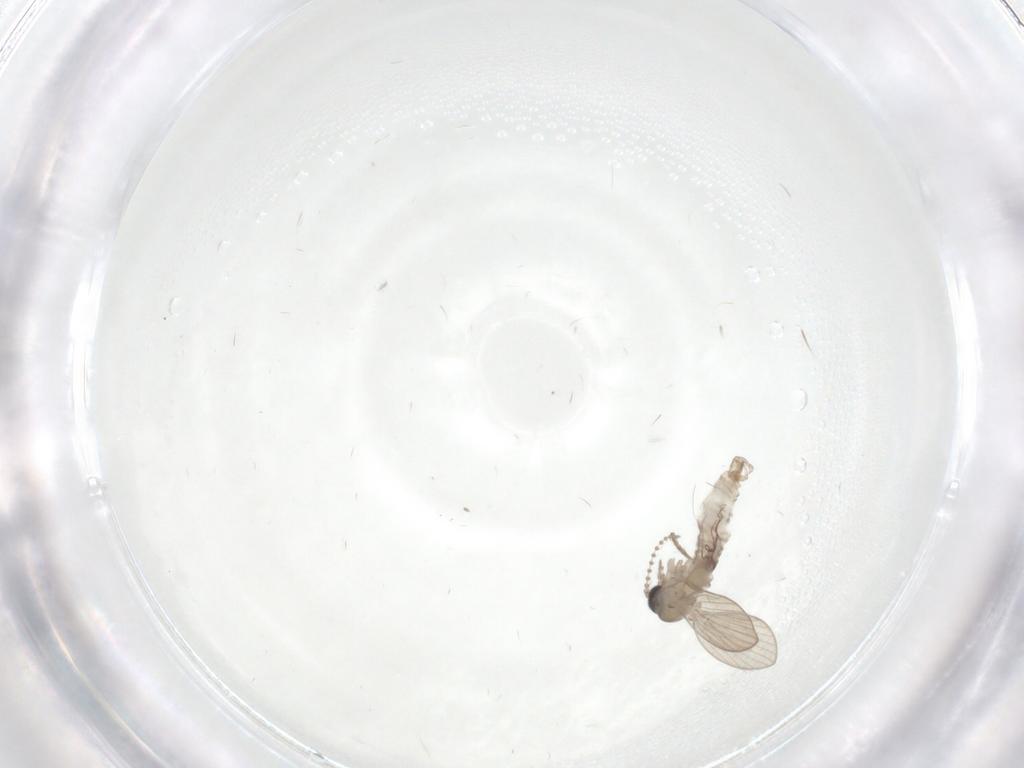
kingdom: Animalia
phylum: Arthropoda
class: Insecta
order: Diptera
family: Psychodidae
